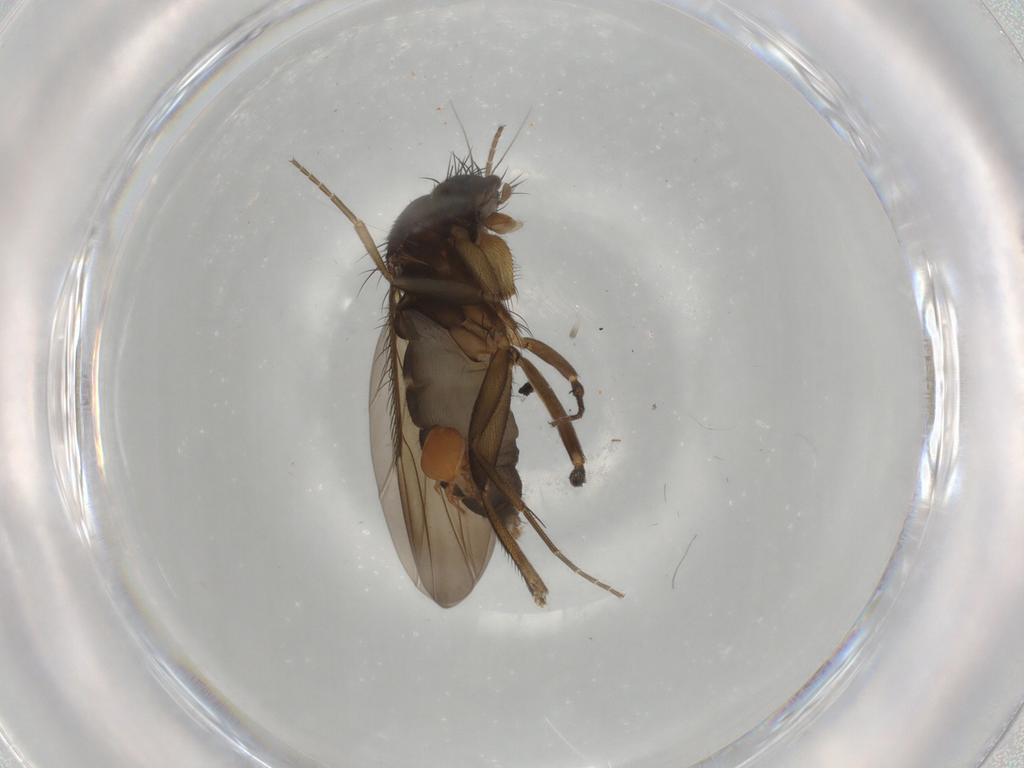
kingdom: Animalia
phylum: Arthropoda
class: Insecta
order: Diptera
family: Phoridae
